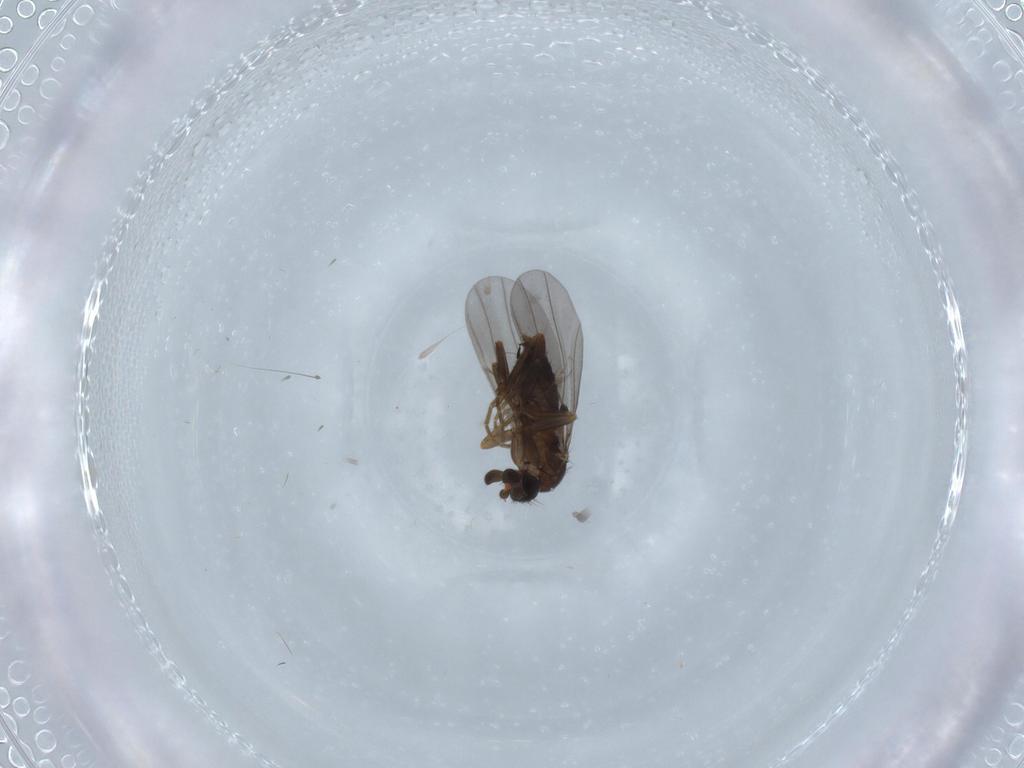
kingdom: Animalia
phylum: Arthropoda
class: Insecta
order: Diptera
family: Phoridae
